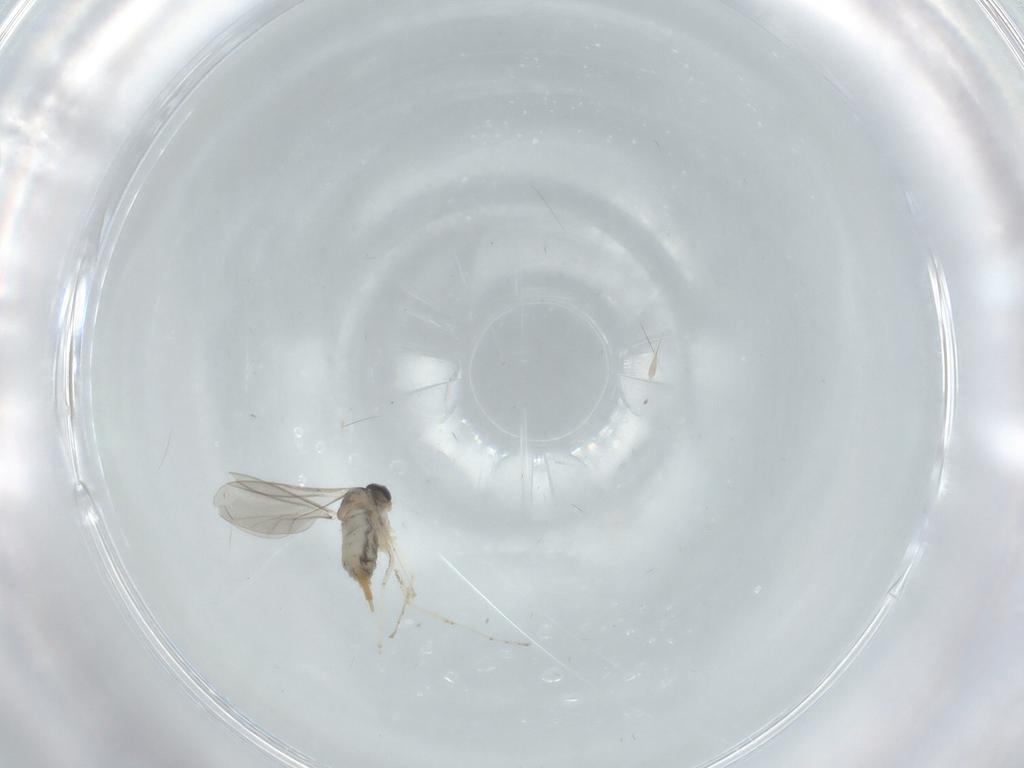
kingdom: Animalia
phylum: Arthropoda
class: Insecta
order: Diptera
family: Cecidomyiidae
